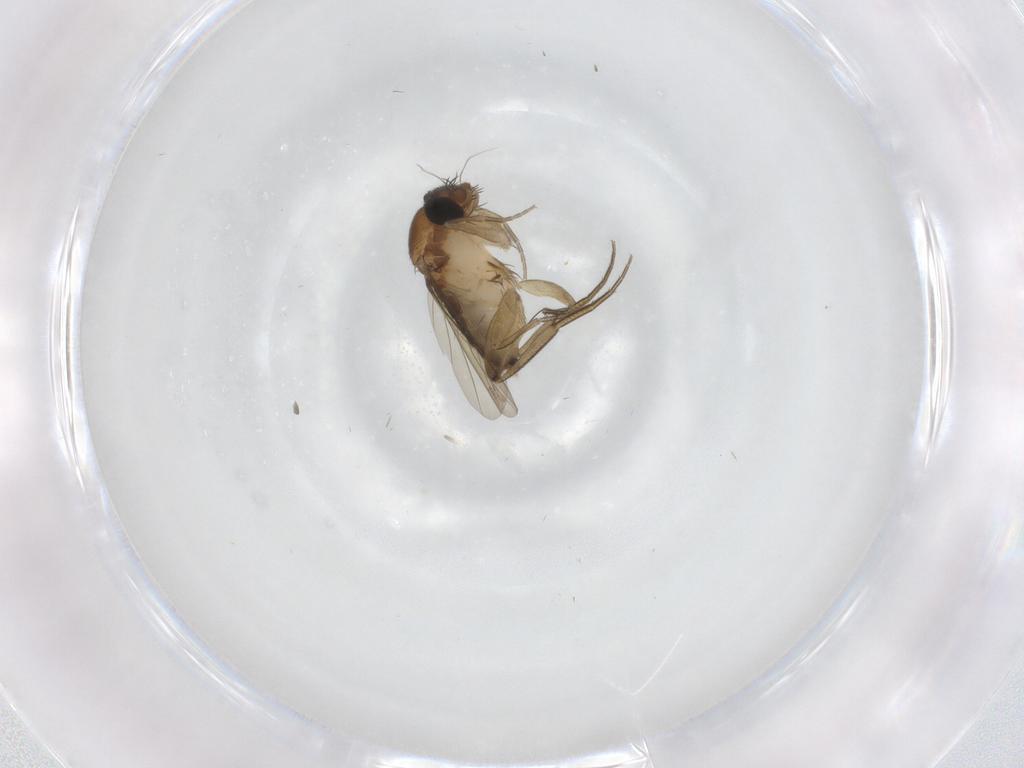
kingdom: Animalia
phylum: Arthropoda
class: Insecta
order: Diptera
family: Phoridae
